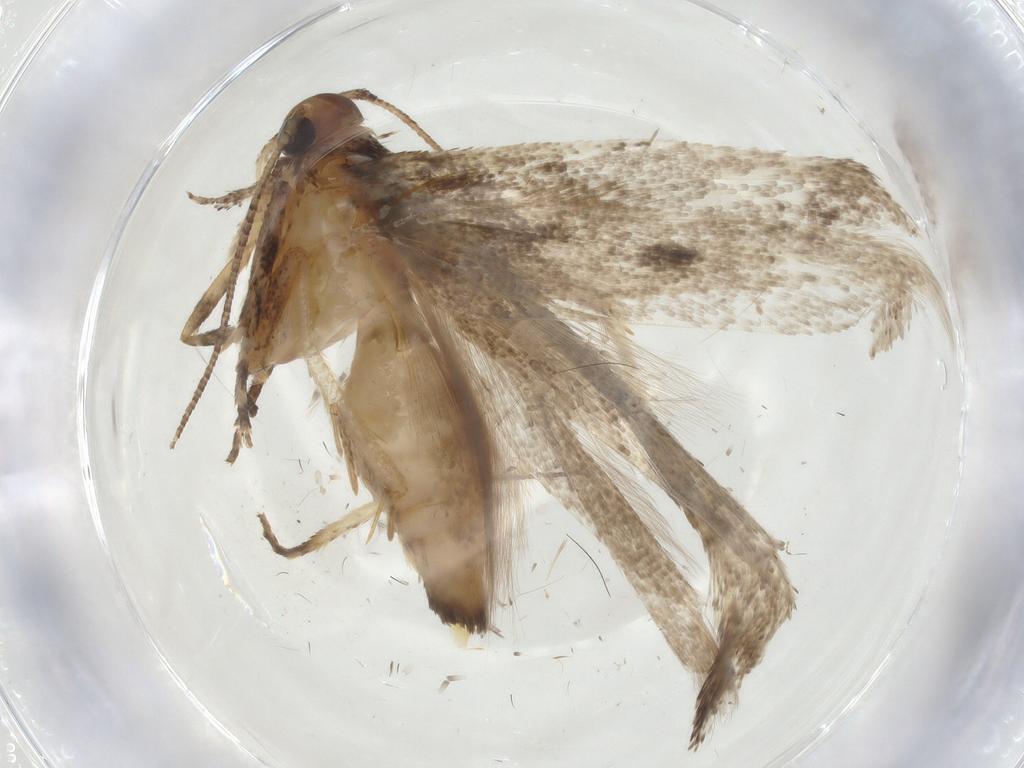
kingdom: Animalia
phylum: Arthropoda
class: Insecta
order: Lepidoptera
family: Gelechiidae
